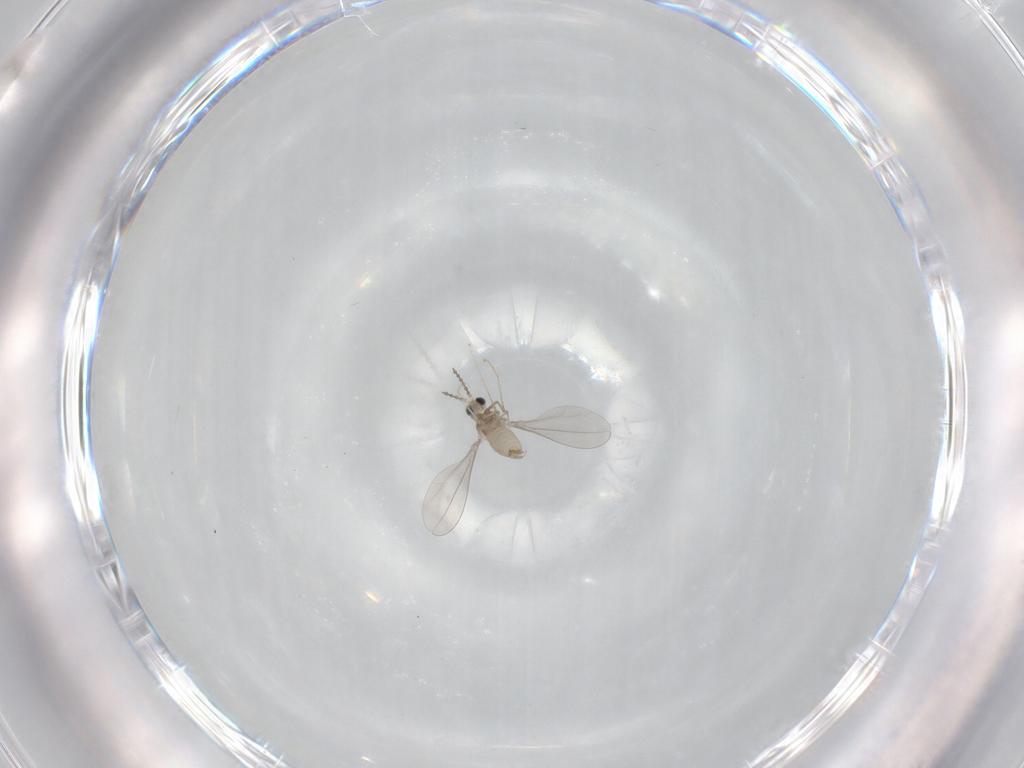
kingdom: Animalia
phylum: Arthropoda
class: Insecta
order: Diptera
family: Cecidomyiidae
